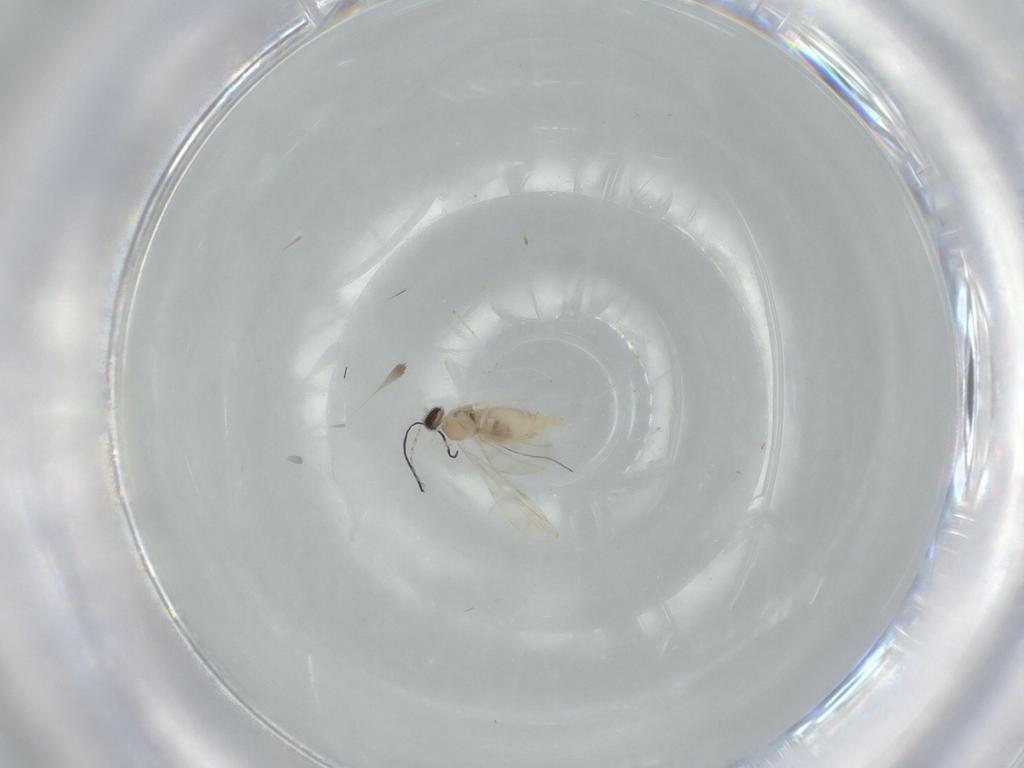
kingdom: Animalia
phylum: Arthropoda
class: Insecta
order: Diptera
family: Cecidomyiidae
